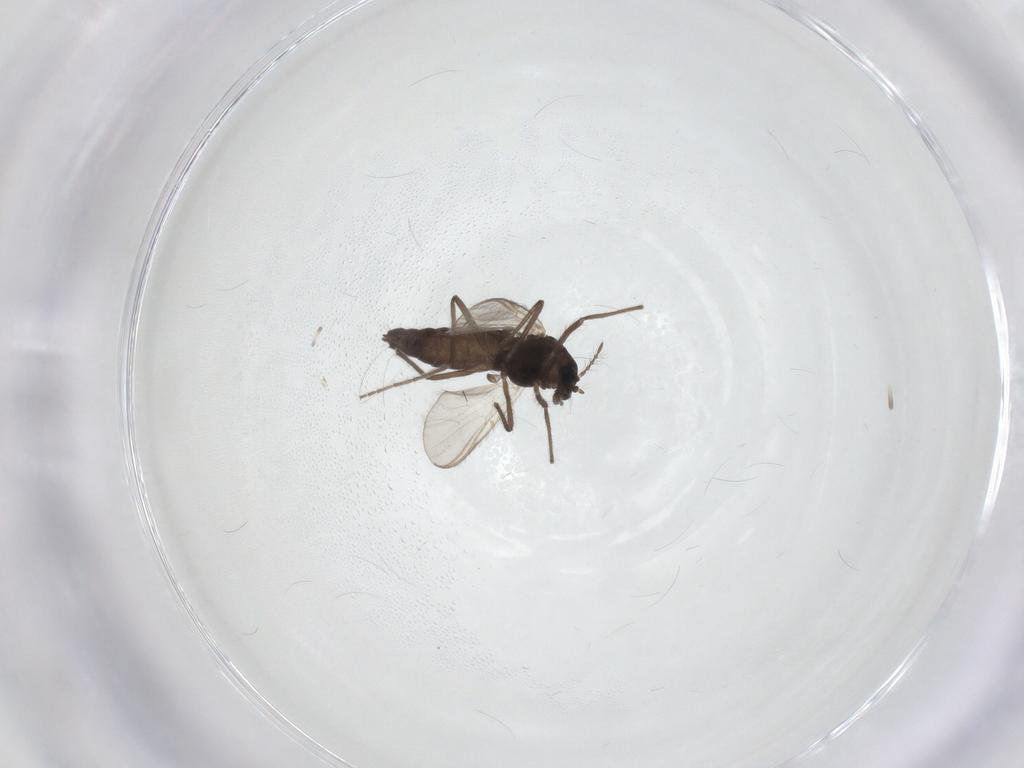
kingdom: Animalia
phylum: Arthropoda
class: Insecta
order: Diptera
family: Chironomidae
